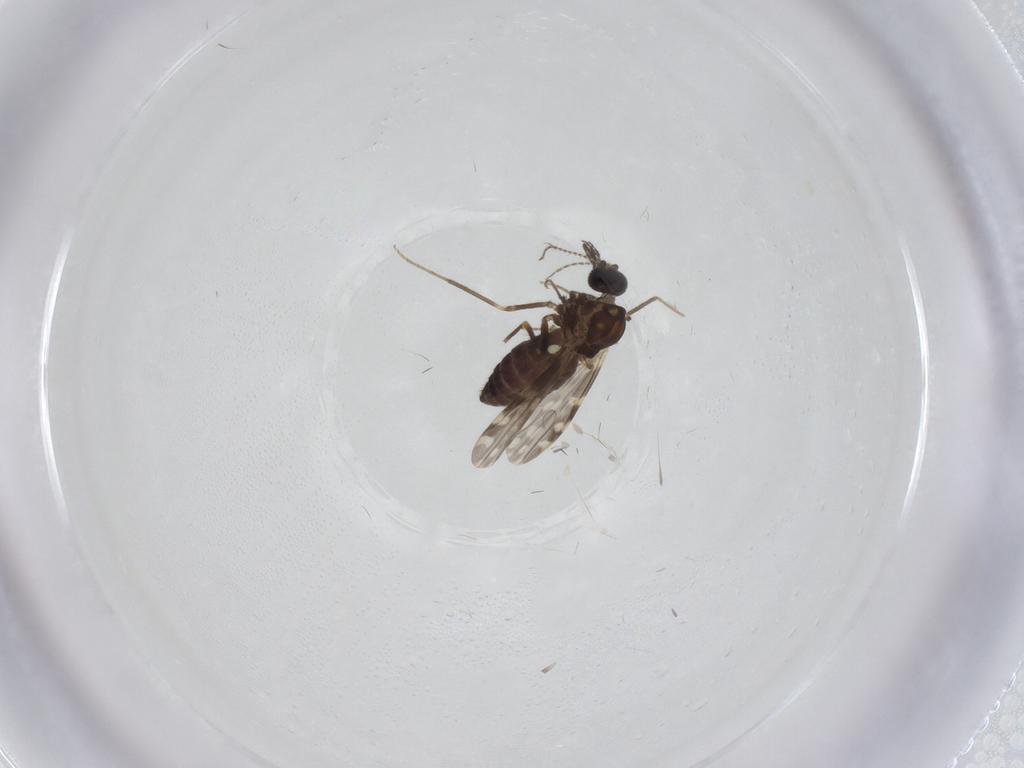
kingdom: Animalia
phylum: Arthropoda
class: Insecta
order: Diptera
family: Ceratopogonidae
